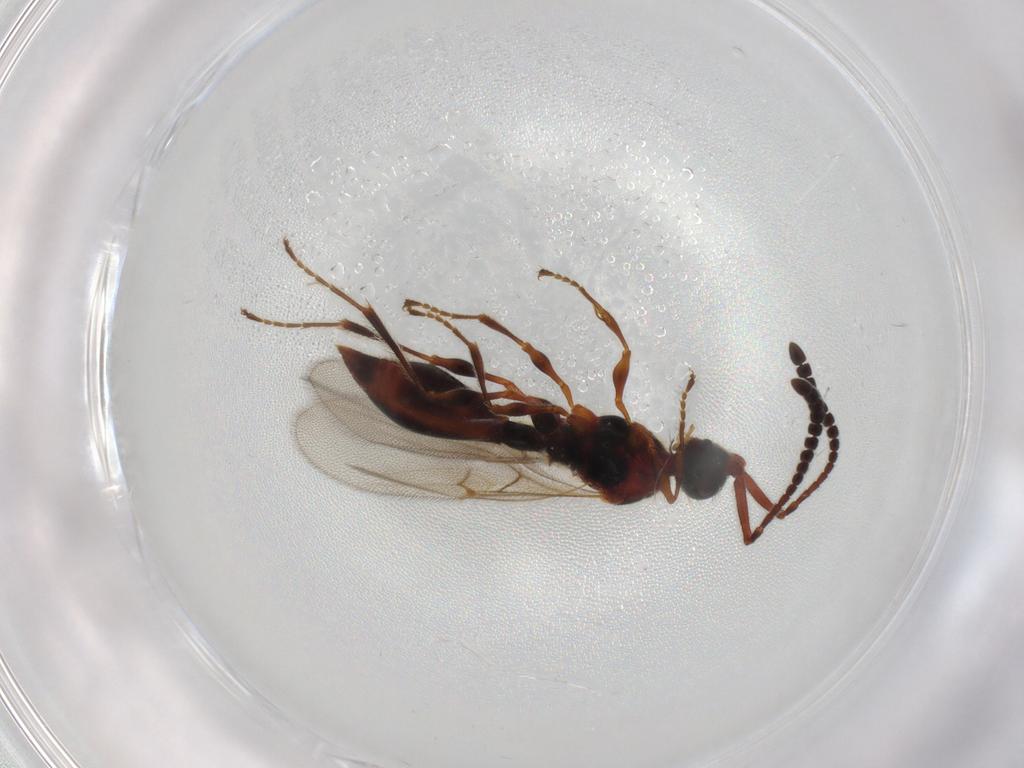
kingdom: Animalia
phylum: Arthropoda
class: Insecta
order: Hymenoptera
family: Diapriidae
